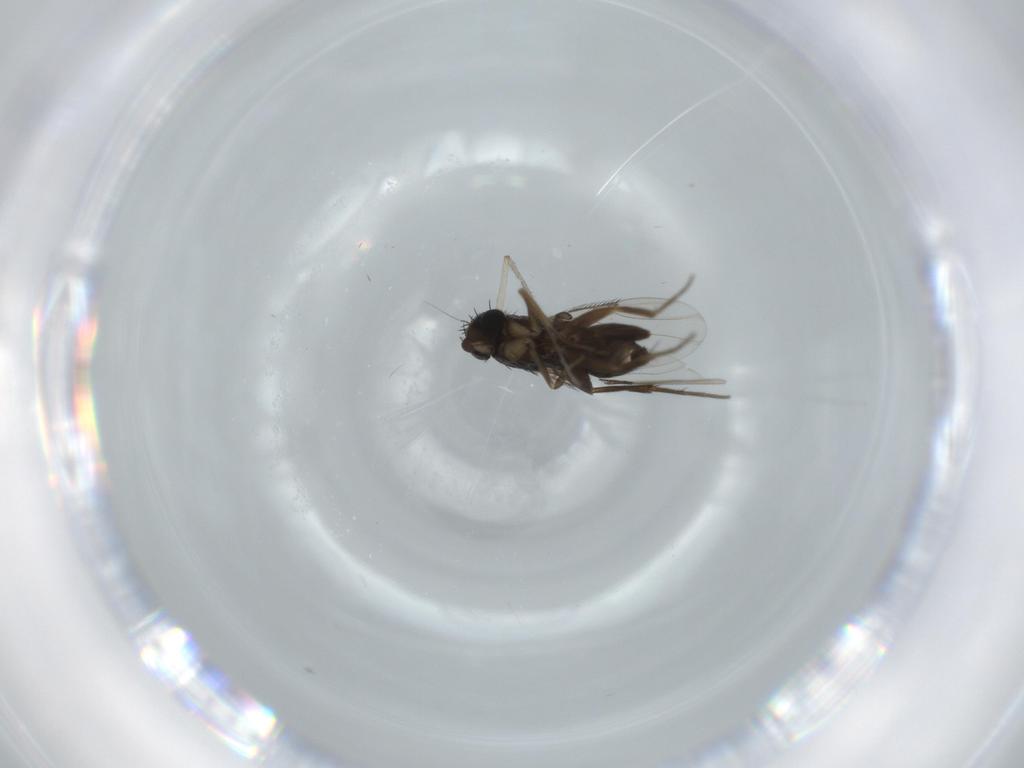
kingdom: Animalia
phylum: Arthropoda
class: Insecta
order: Diptera
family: Chironomidae
